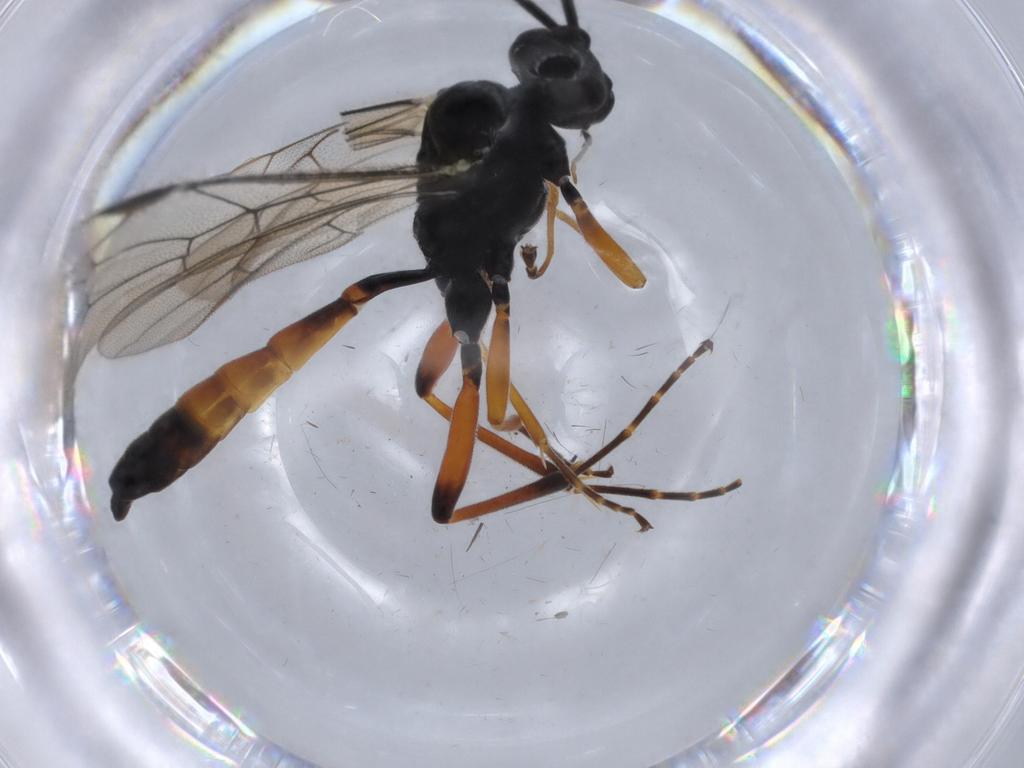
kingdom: Animalia
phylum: Arthropoda
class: Insecta
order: Hymenoptera
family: Ichneumonidae
